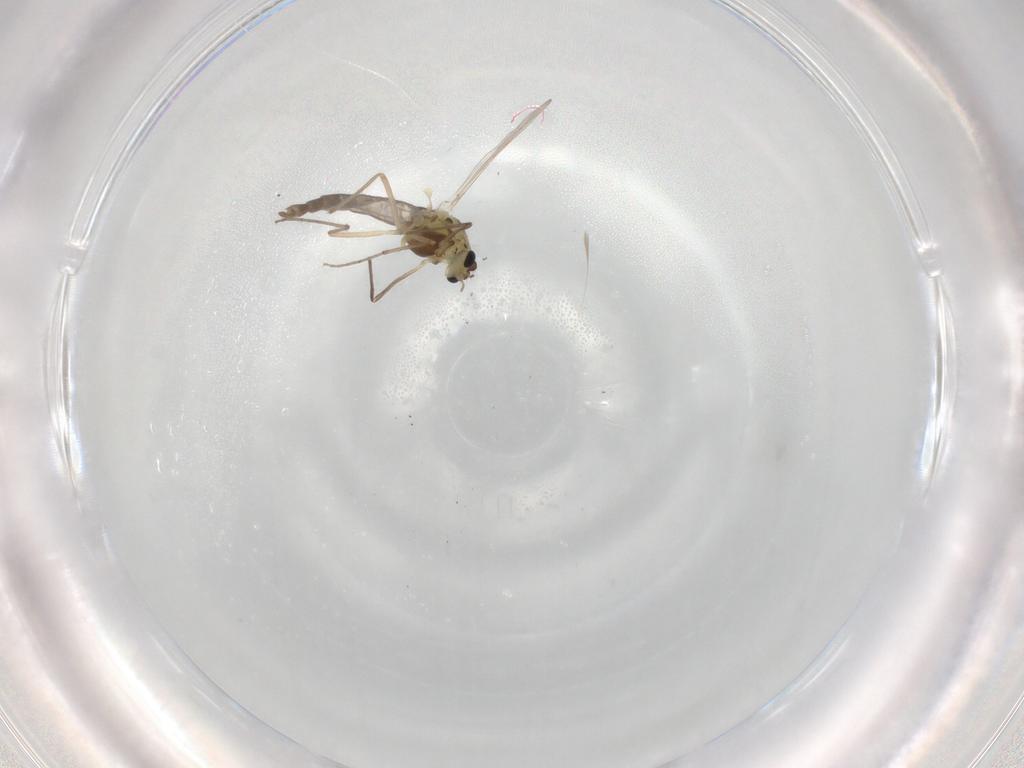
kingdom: Animalia
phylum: Arthropoda
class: Insecta
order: Diptera
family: Chironomidae
